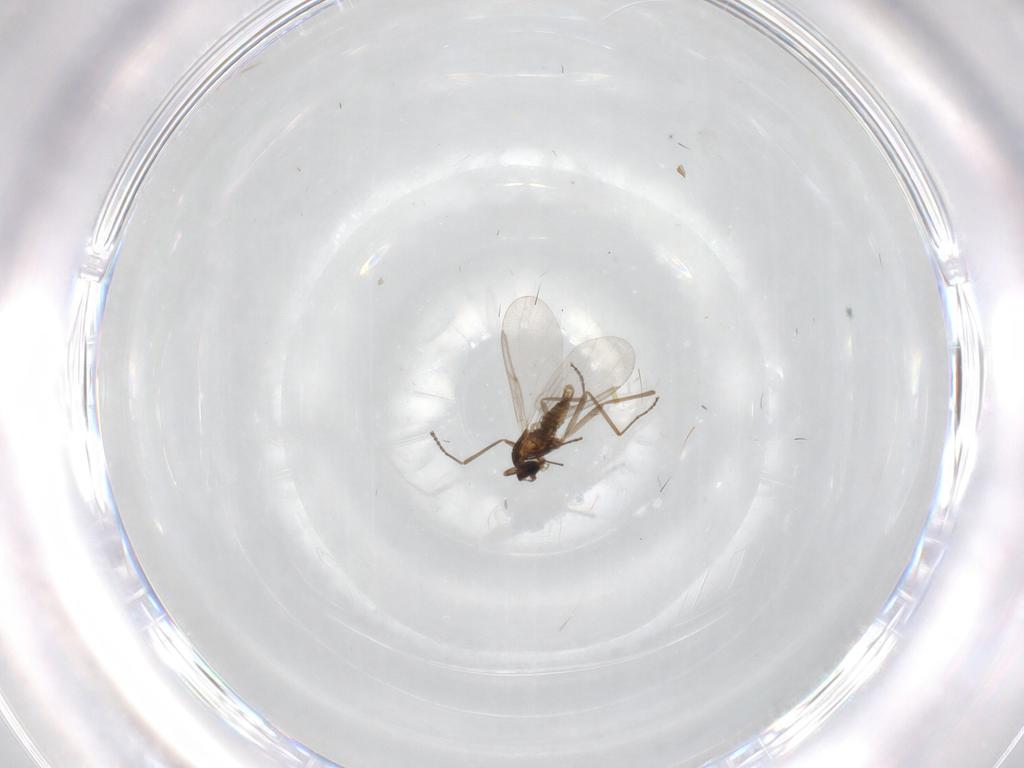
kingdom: Animalia
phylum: Arthropoda
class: Insecta
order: Diptera
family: Cecidomyiidae
